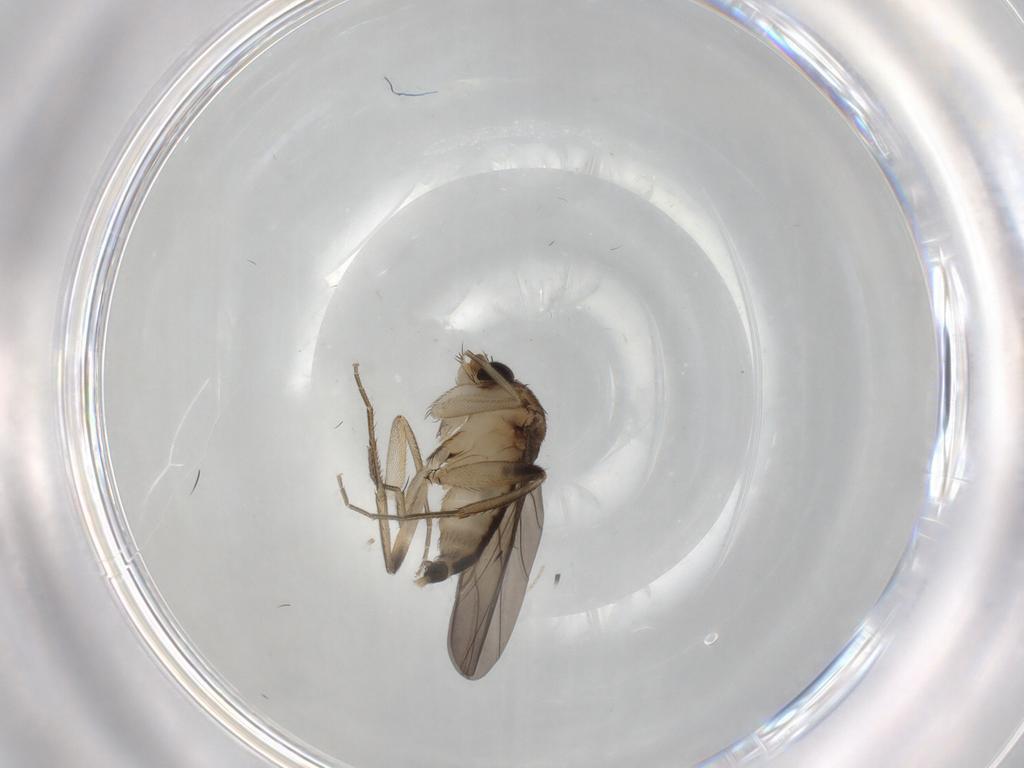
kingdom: Animalia
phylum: Arthropoda
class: Insecta
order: Diptera
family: Phoridae
